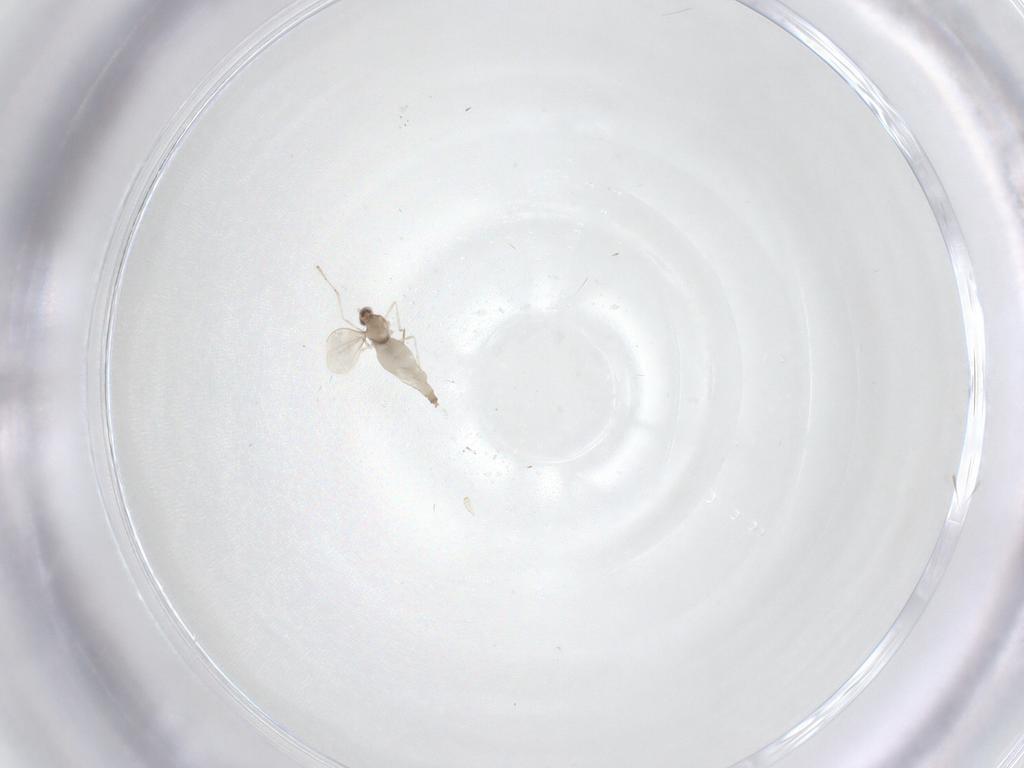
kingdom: Animalia
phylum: Arthropoda
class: Insecta
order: Diptera
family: Cecidomyiidae
